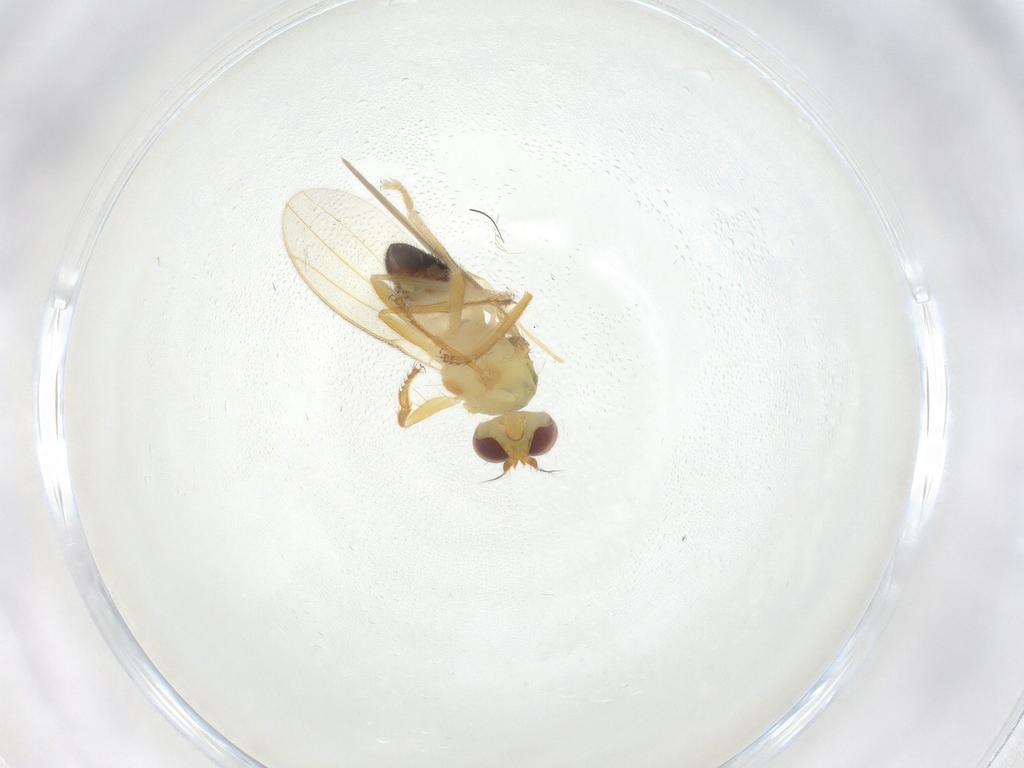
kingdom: Animalia
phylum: Arthropoda
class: Insecta
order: Diptera
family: Periscelididae
